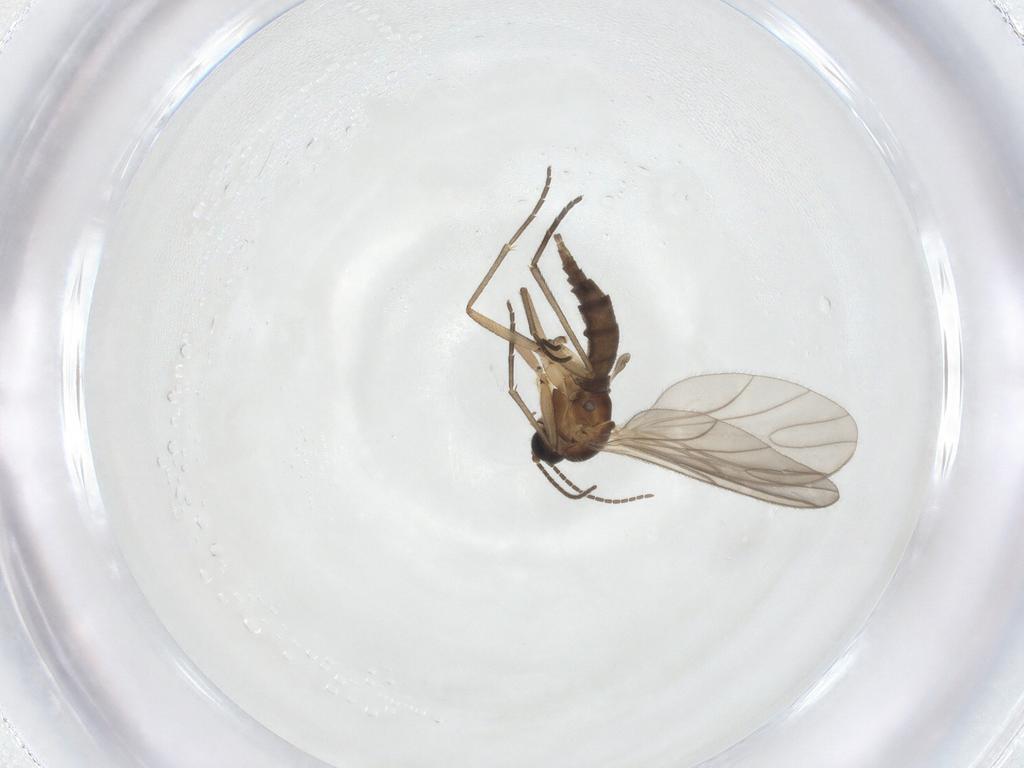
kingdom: Animalia
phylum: Arthropoda
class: Insecta
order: Diptera
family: Sciaridae
